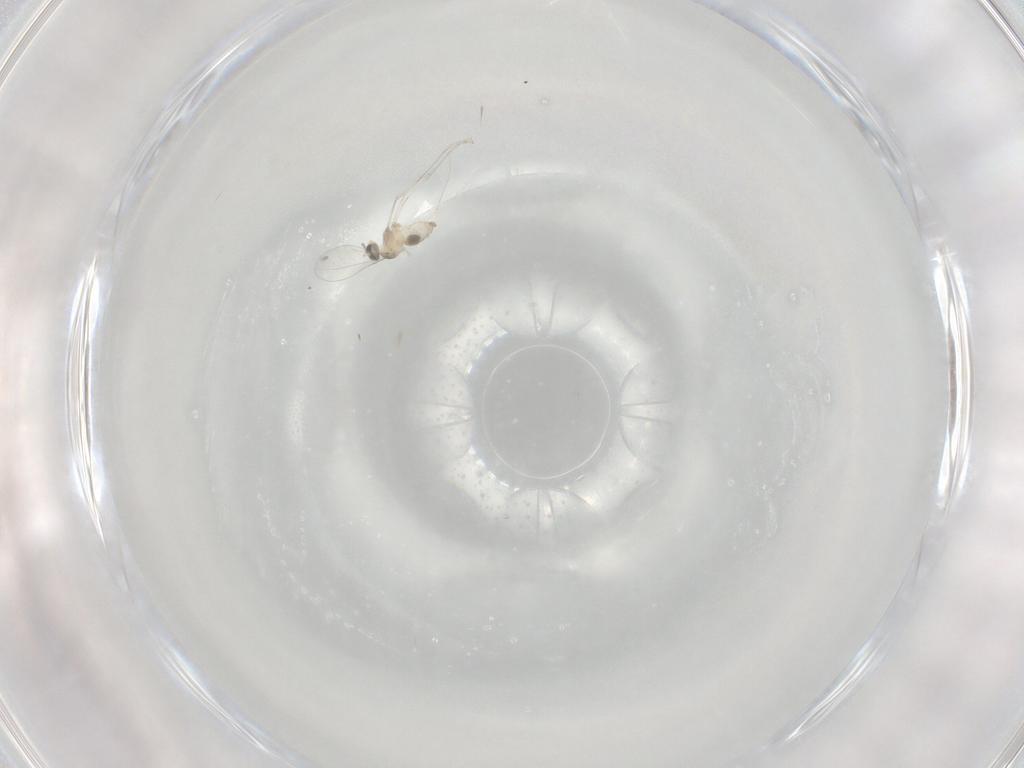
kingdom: Animalia
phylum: Arthropoda
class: Insecta
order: Diptera
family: Cecidomyiidae
